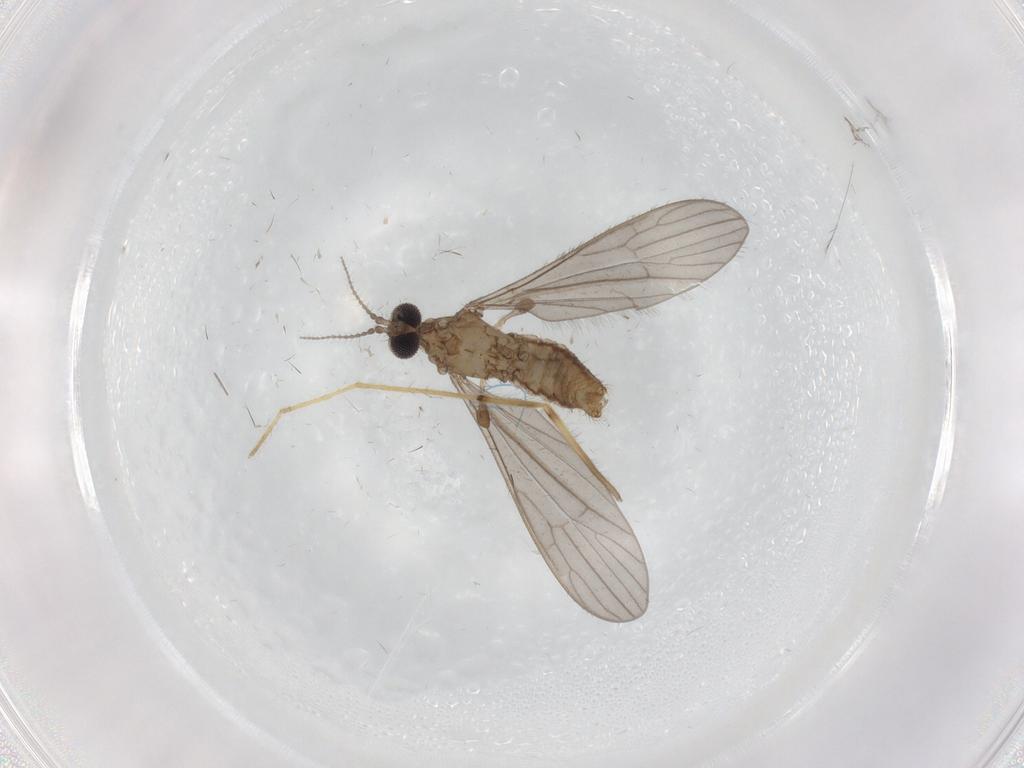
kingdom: Animalia
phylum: Arthropoda
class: Insecta
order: Diptera
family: Limoniidae
